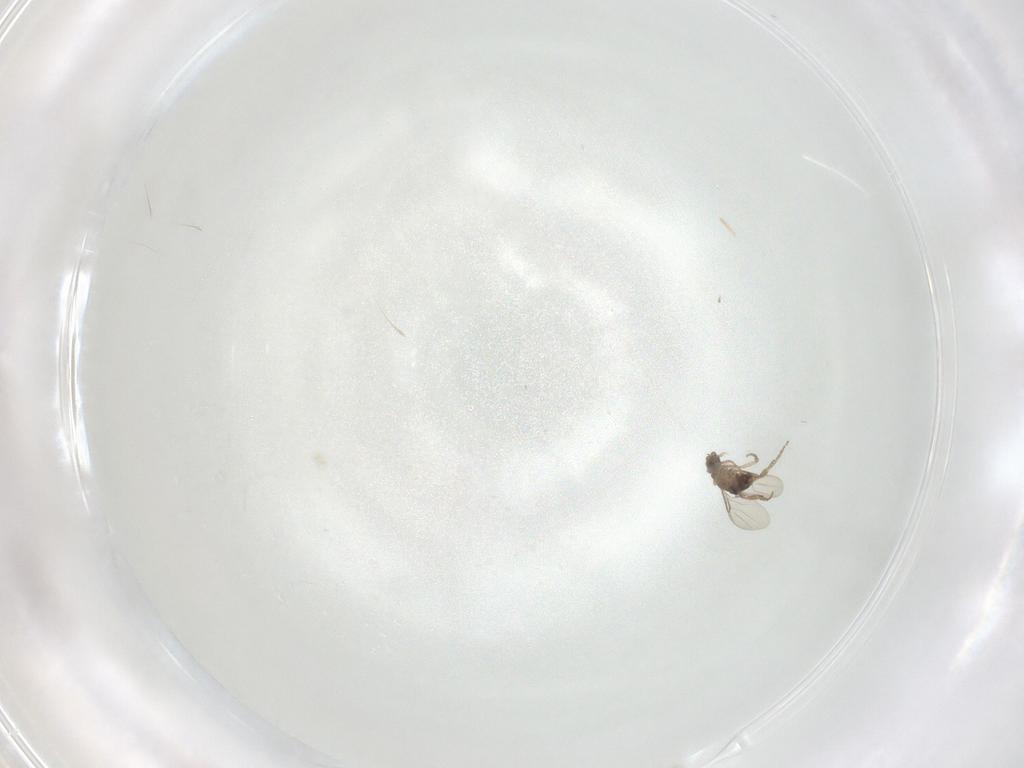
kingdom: Animalia
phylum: Arthropoda
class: Insecta
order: Diptera
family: Phoridae
